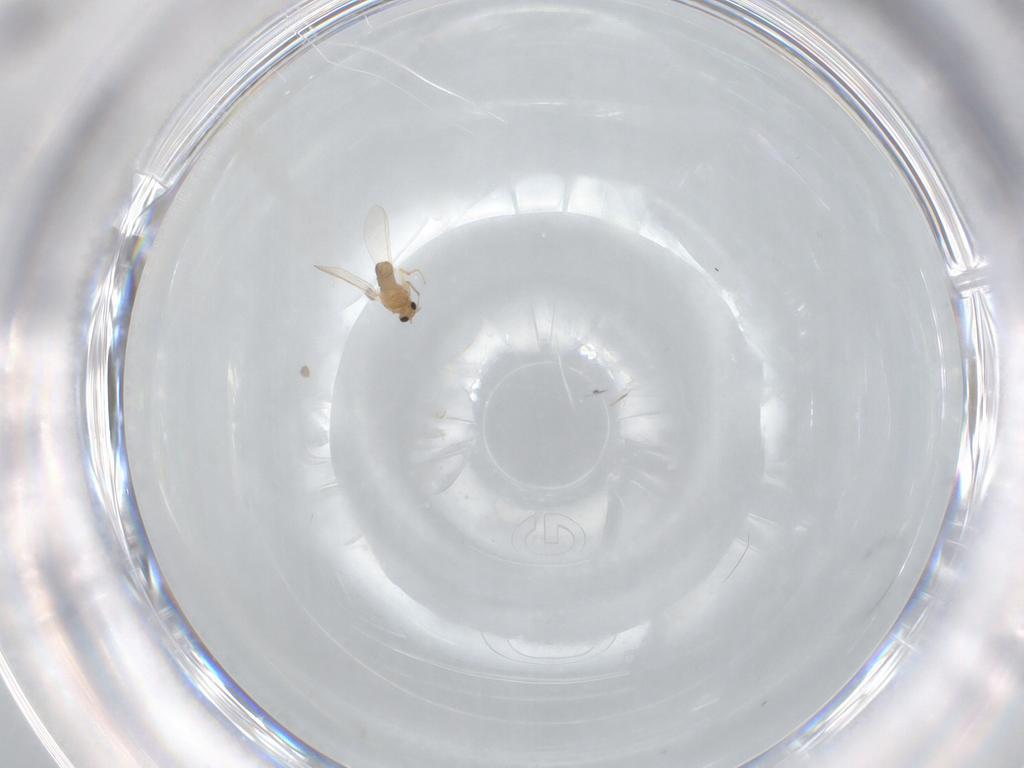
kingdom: Animalia
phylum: Arthropoda
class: Insecta
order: Diptera
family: Chironomidae
